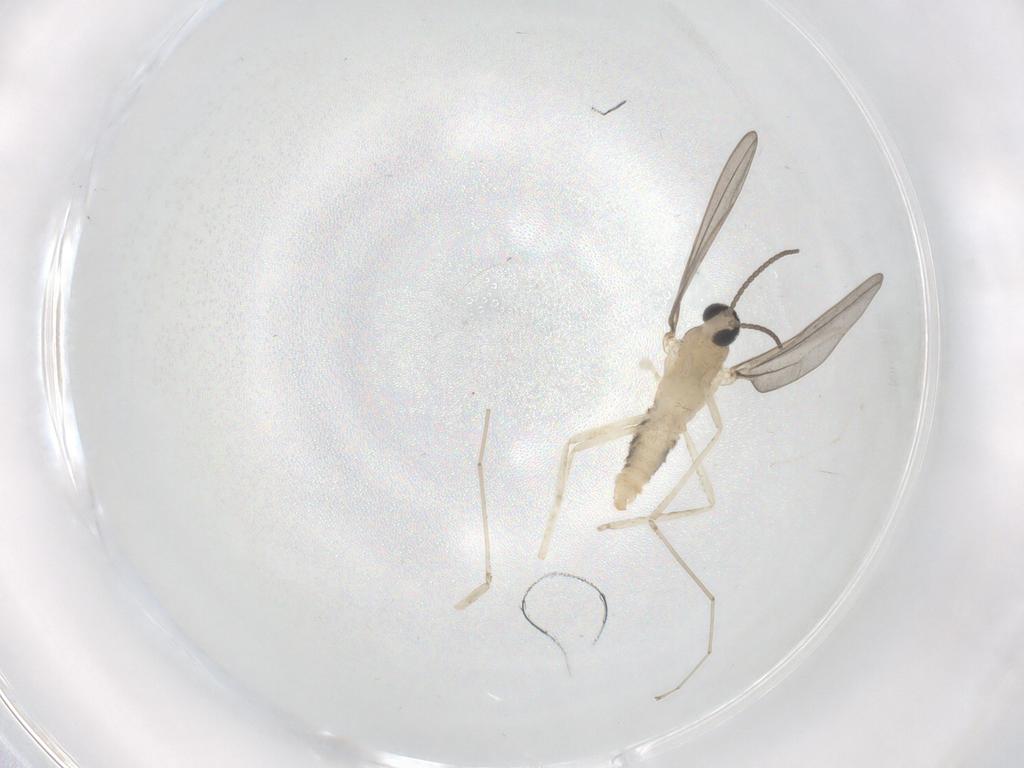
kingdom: Animalia
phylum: Arthropoda
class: Insecta
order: Diptera
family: Cecidomyiidae
